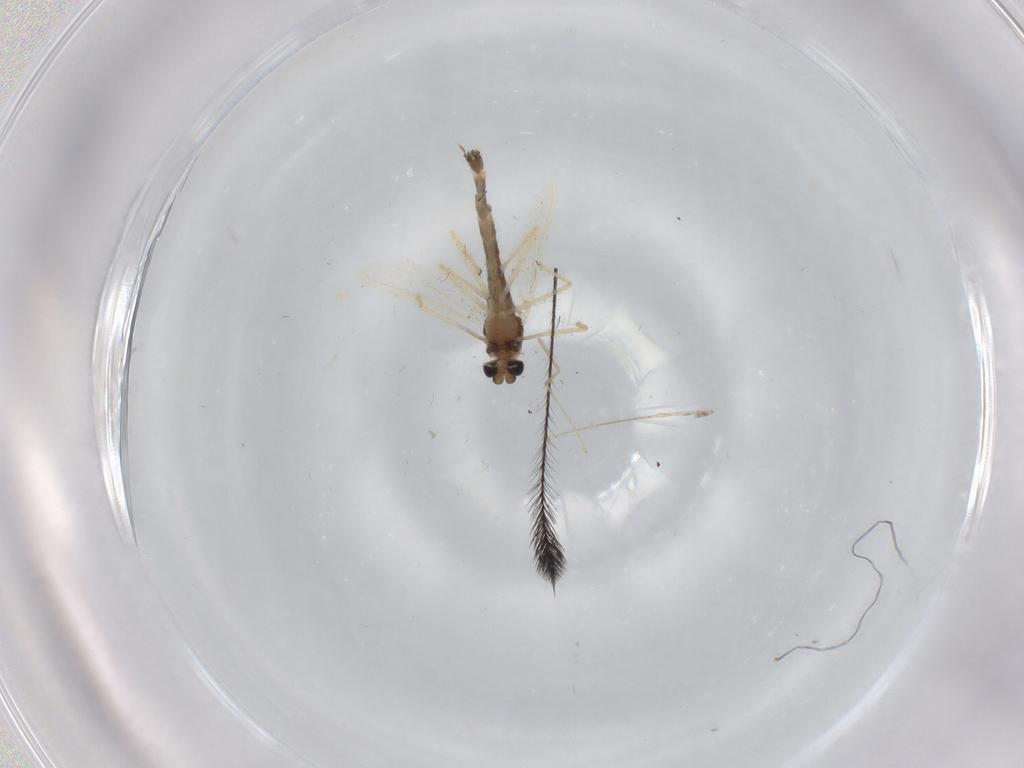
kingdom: Animalia
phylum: Arthropoda
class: Insecta
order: Diptera
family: Chironomidae
